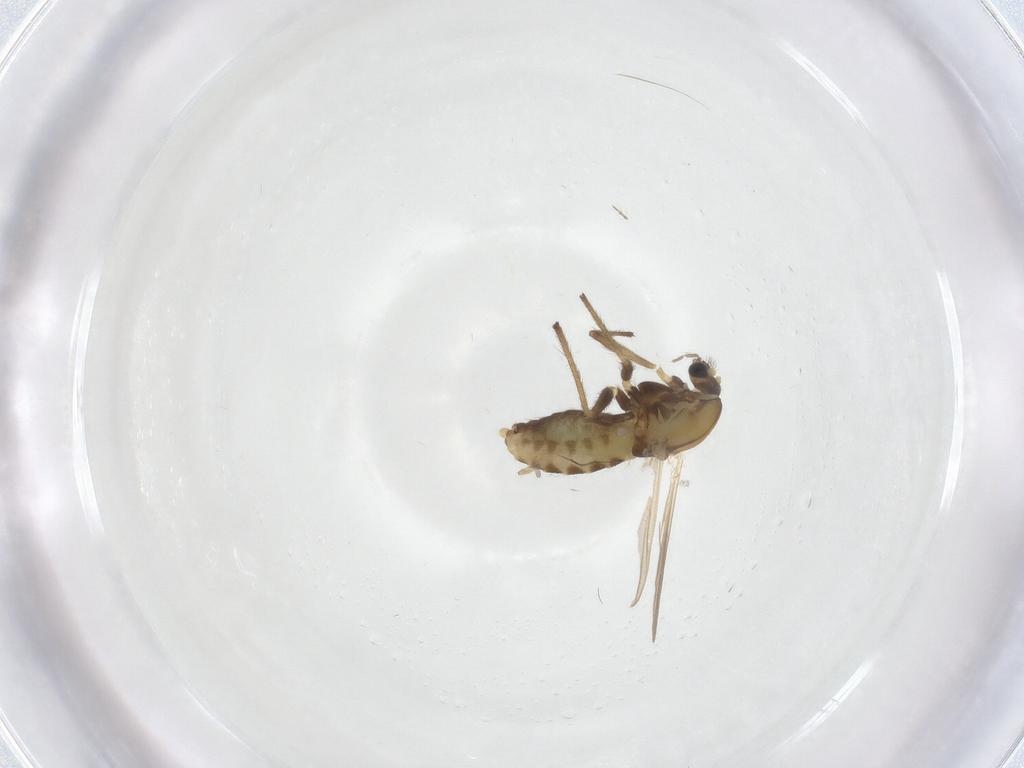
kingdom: Animalia
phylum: Arthropoda
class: Insecta
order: Diptera
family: Chironomidae
